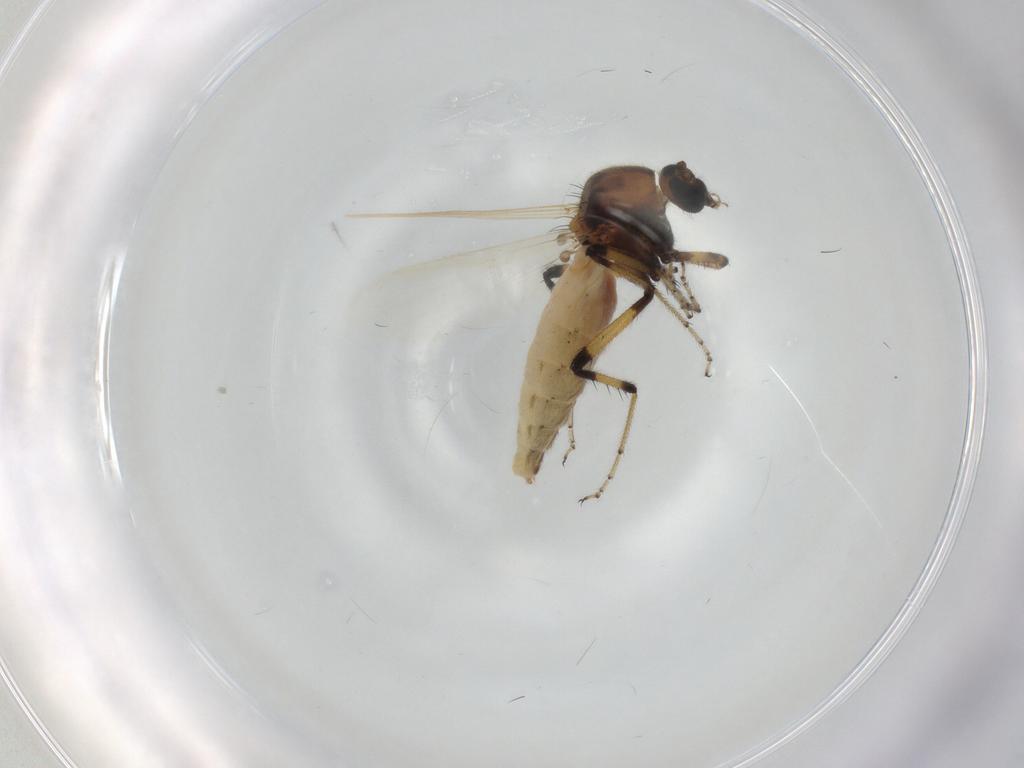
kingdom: Animalia
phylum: Arthropoda
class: Insecta
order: Diptera
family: Ceratopogonidae
